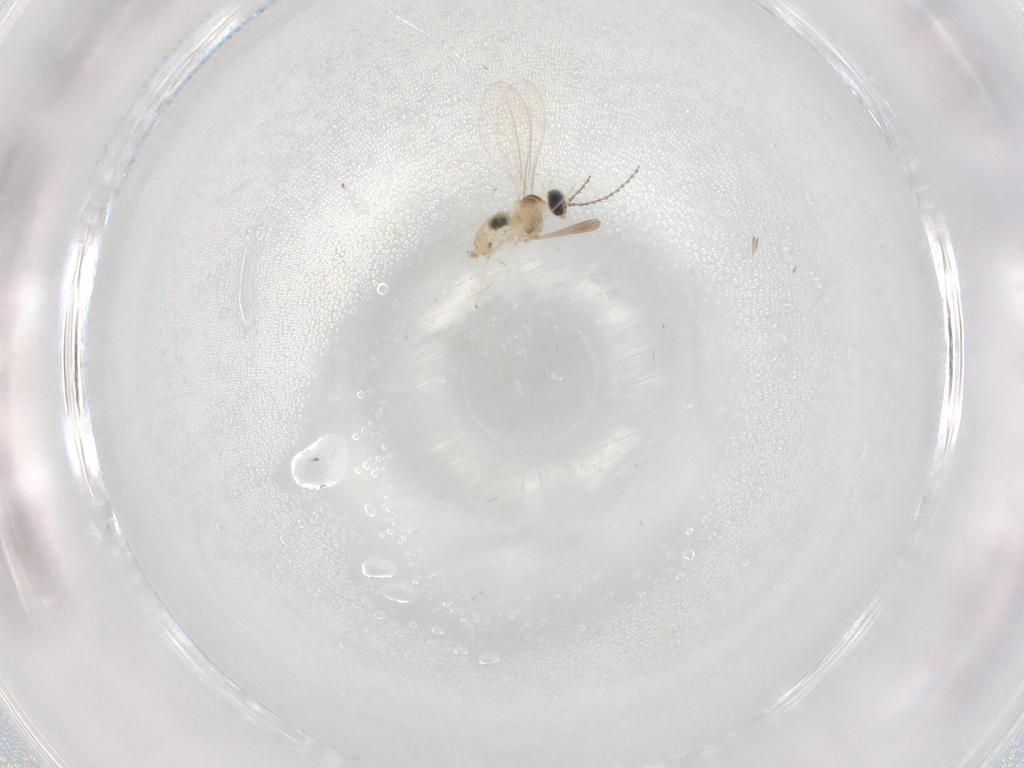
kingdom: Animalia
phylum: Arthropoda
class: Insecta
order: Diptera
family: Cecidomyiidae
